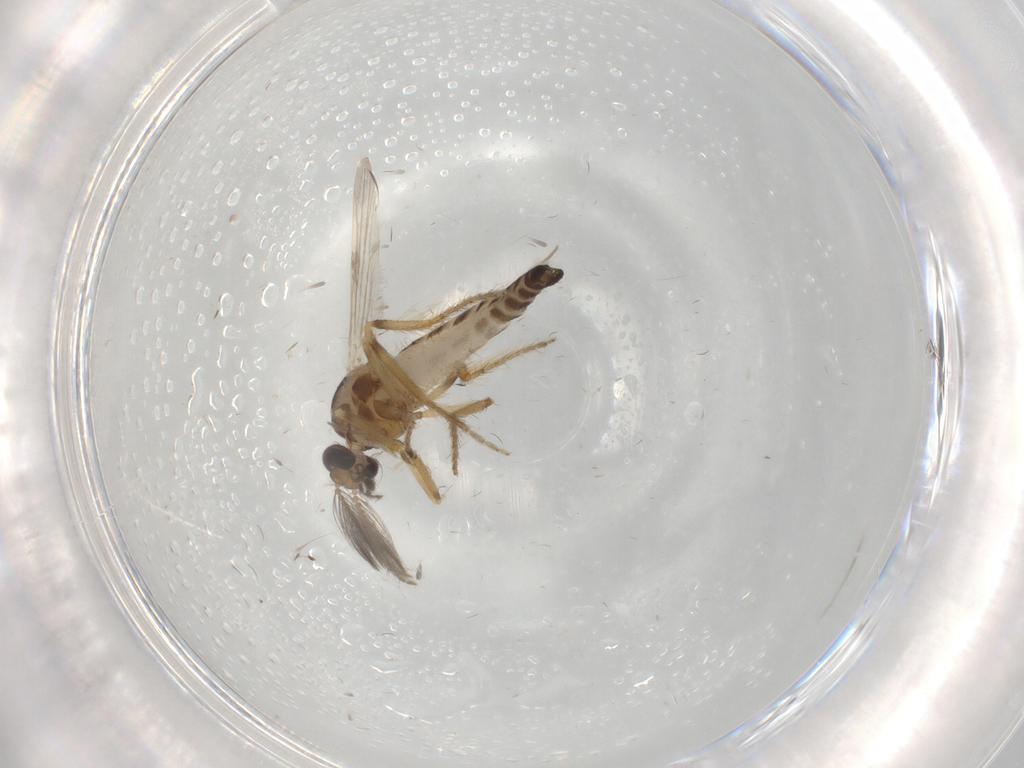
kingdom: Animalia
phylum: Arthropoda
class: Insecta
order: Diptera
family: Ceratopogonidae
